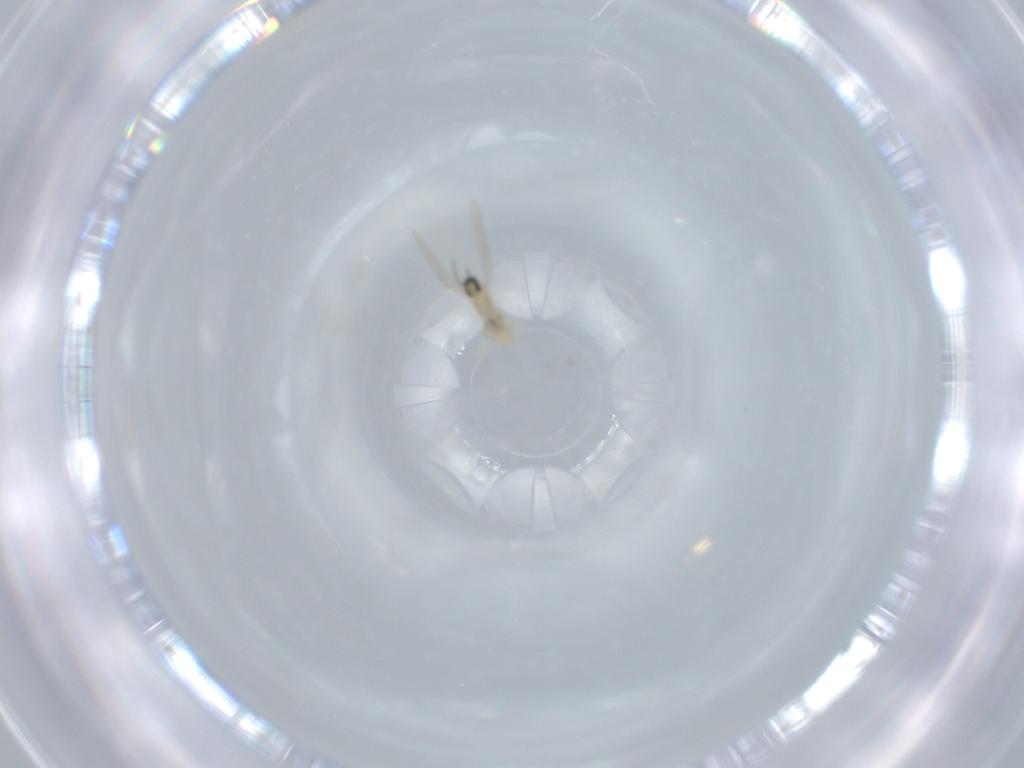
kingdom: Animalia
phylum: Arthropoda
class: Insecta
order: Diptera
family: Cecidomyiidae
